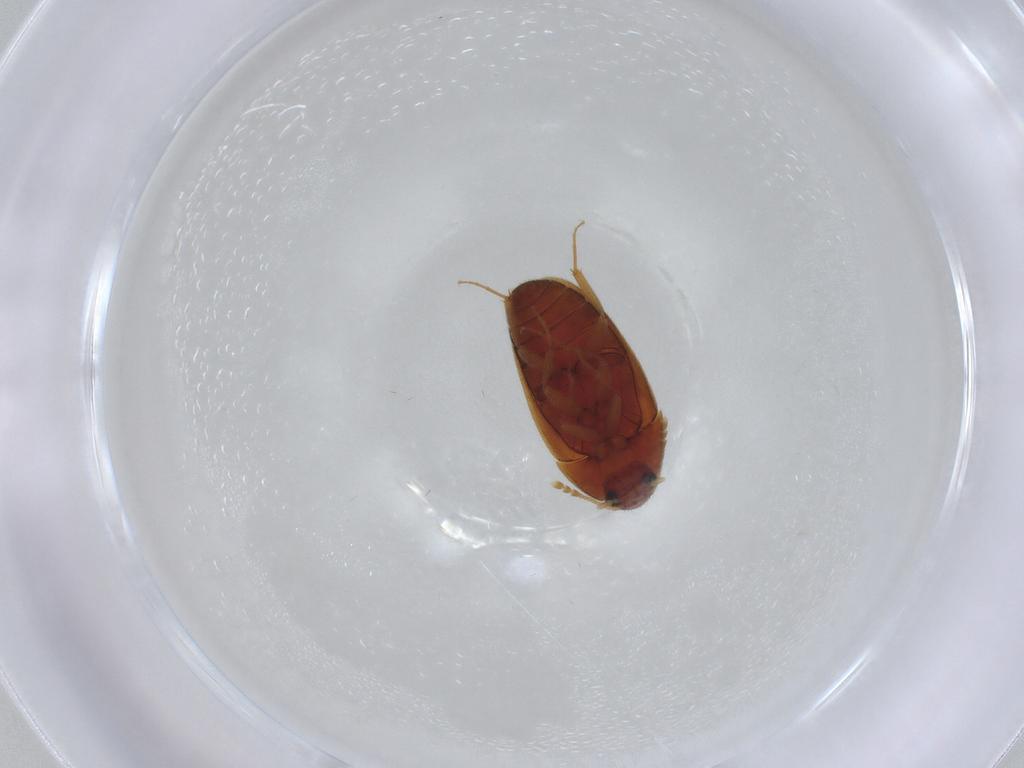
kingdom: Animalia
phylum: Arthropoda
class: Insecta
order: Coleoptera
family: Mycetophagidae
